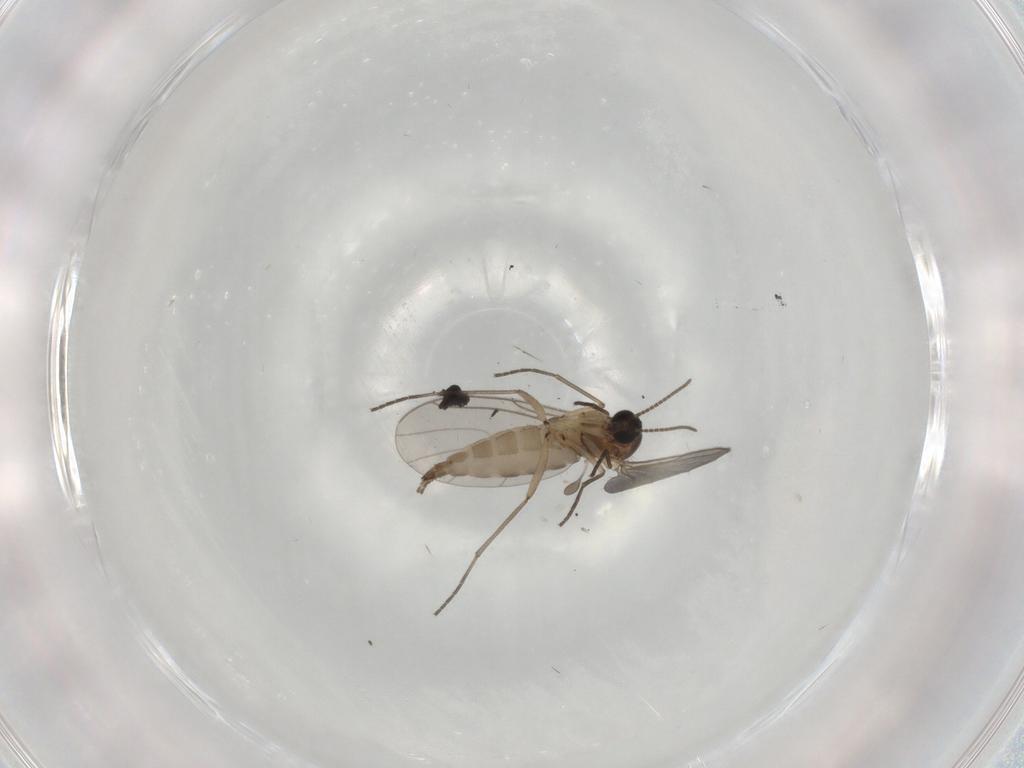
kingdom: Animalia
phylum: Arthropoda
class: Insecta
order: Diptera
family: Sciaridae
